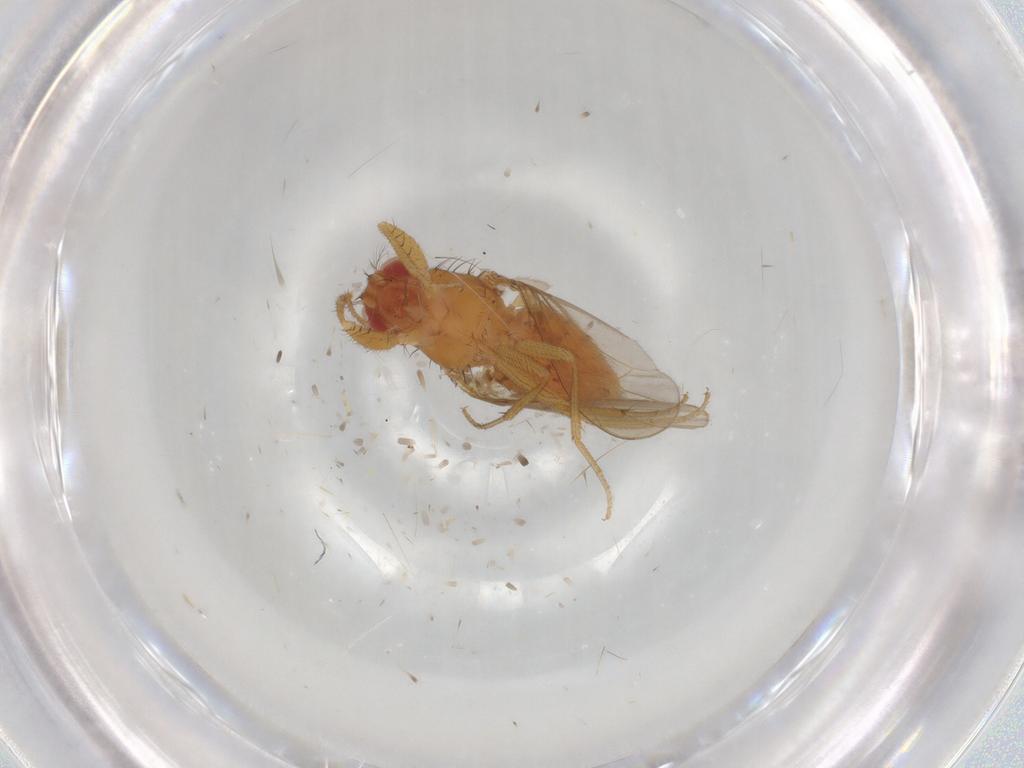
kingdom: Animalia
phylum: Arthropoda
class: Insecta
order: Diptera
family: Drosophilidae
